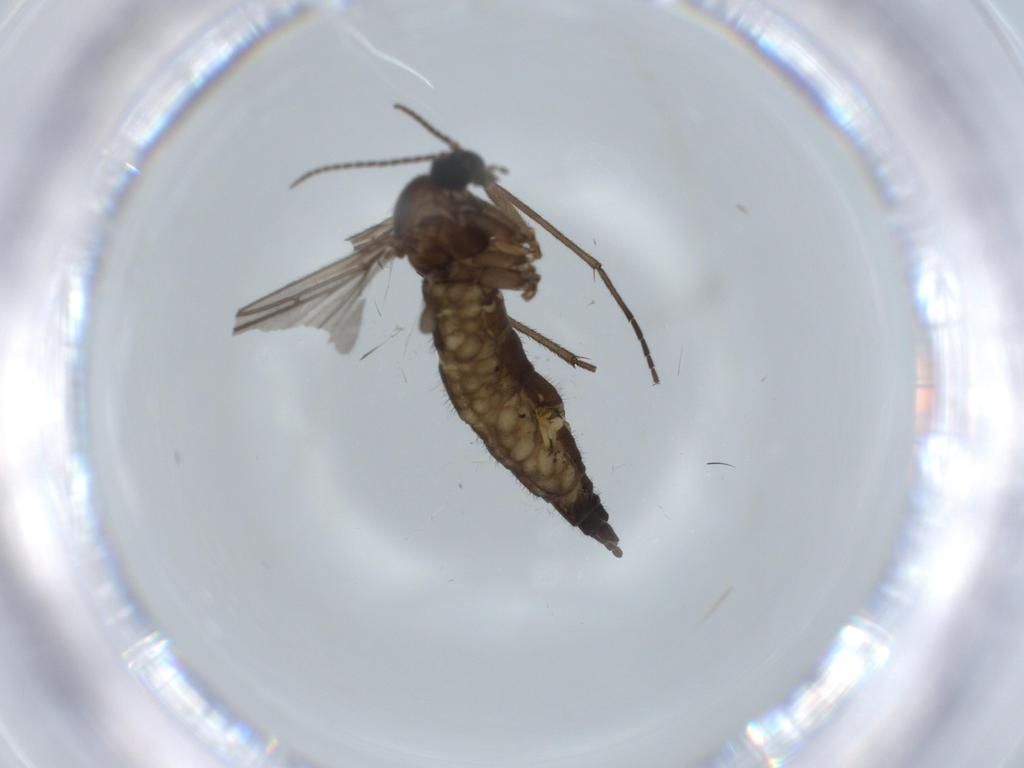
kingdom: Animalia
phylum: Arthropoda
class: Insecta
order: Diptera
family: Sciaridae
